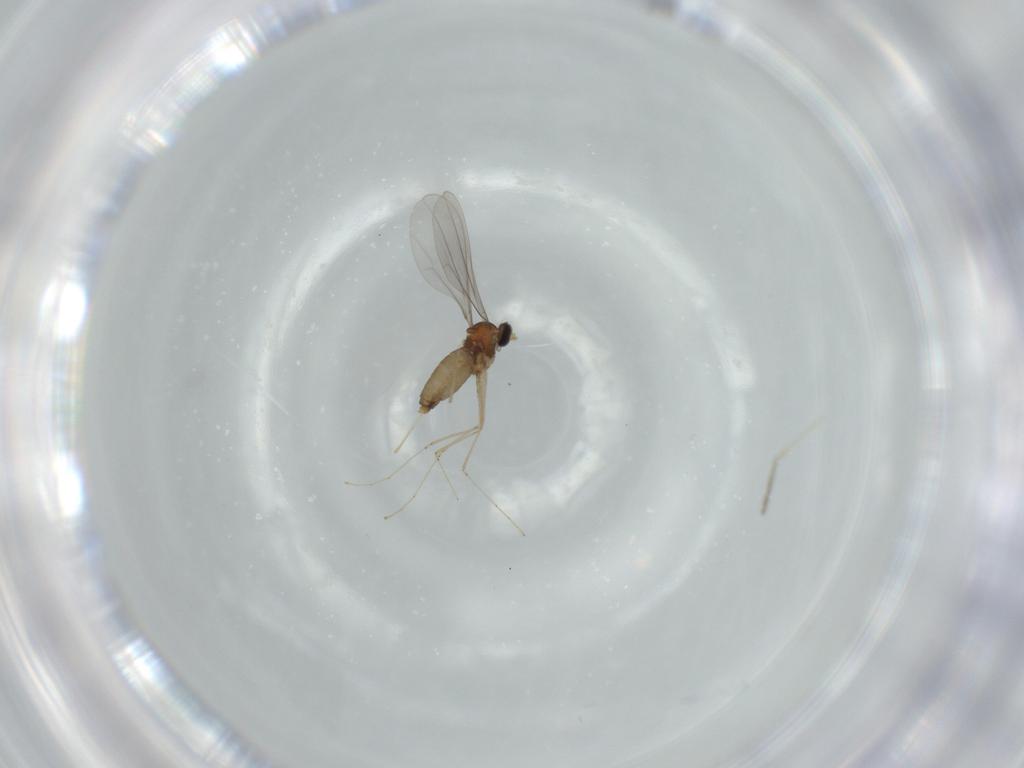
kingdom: Animalia
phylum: Arthropoda
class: Insecta
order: Diptera
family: Cecidomyiidae
